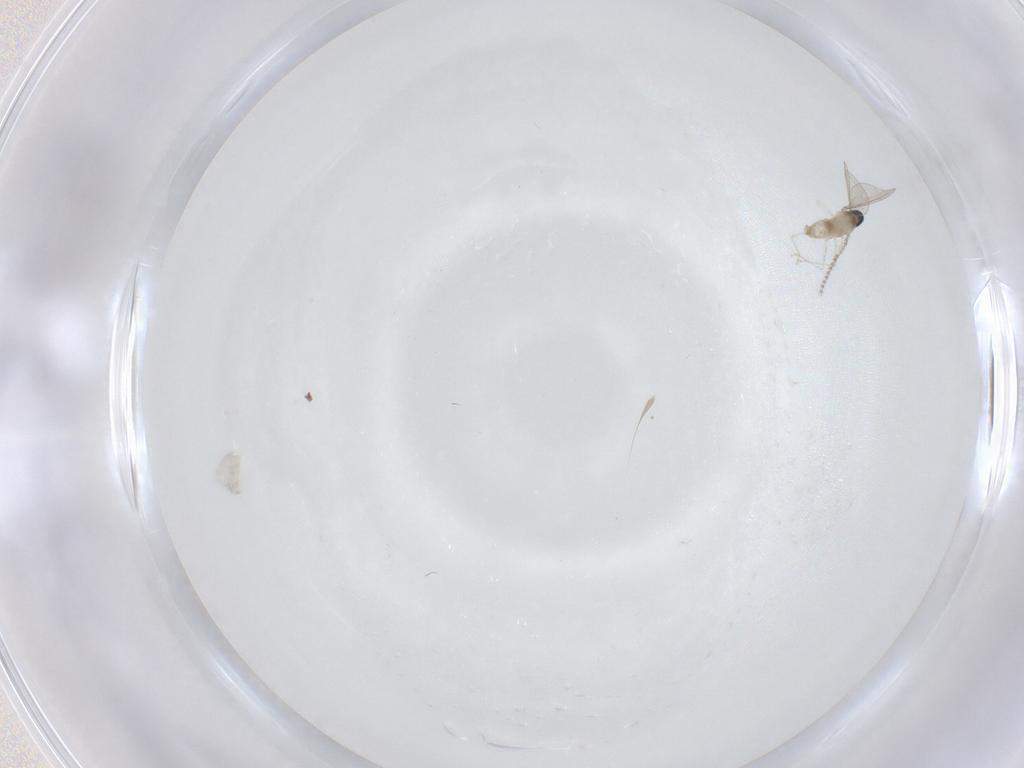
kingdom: Animalia
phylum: Arthropoda
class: Insecta
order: Diptera
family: Cecidomyiidae
